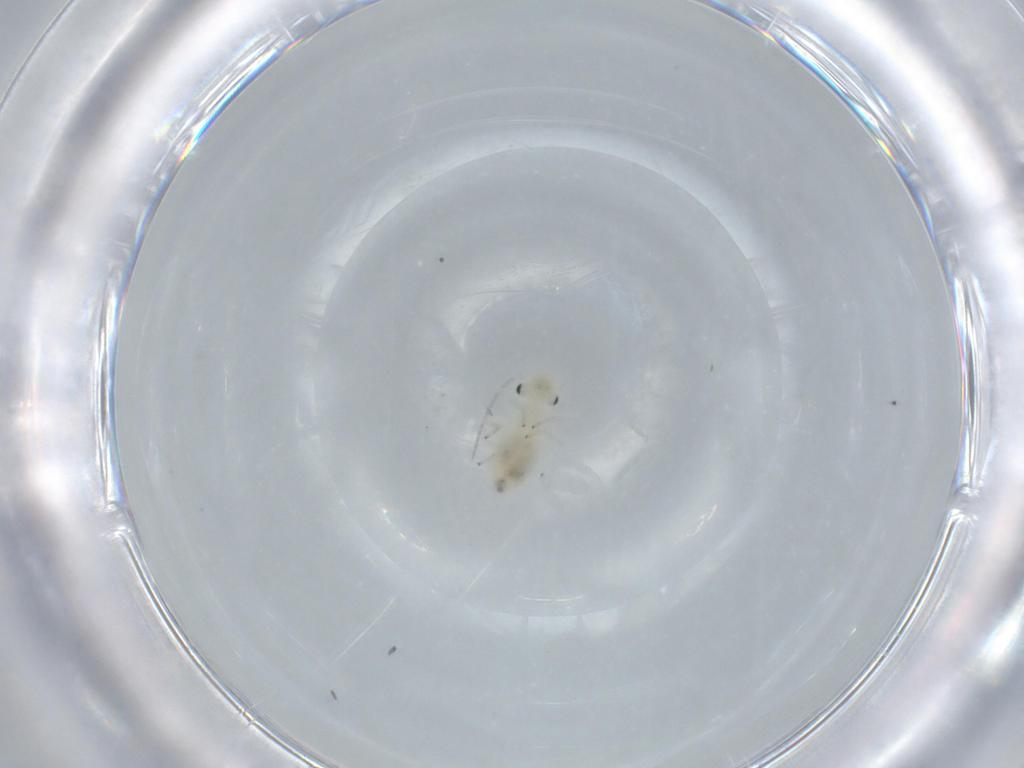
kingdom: Animalia
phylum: Arthropoda
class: Insecta
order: Psocodea
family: Caeciliusidae
